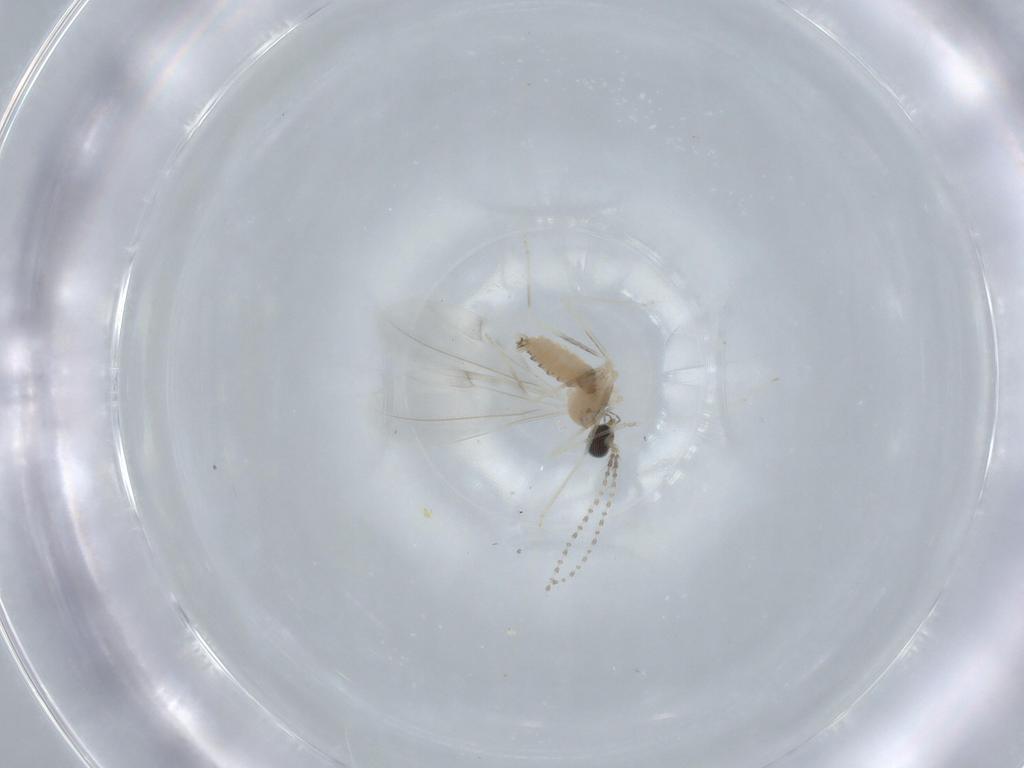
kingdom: Animalia
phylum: Arthropoda
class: Insecta
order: Diptera
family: Cecidomyiidae
